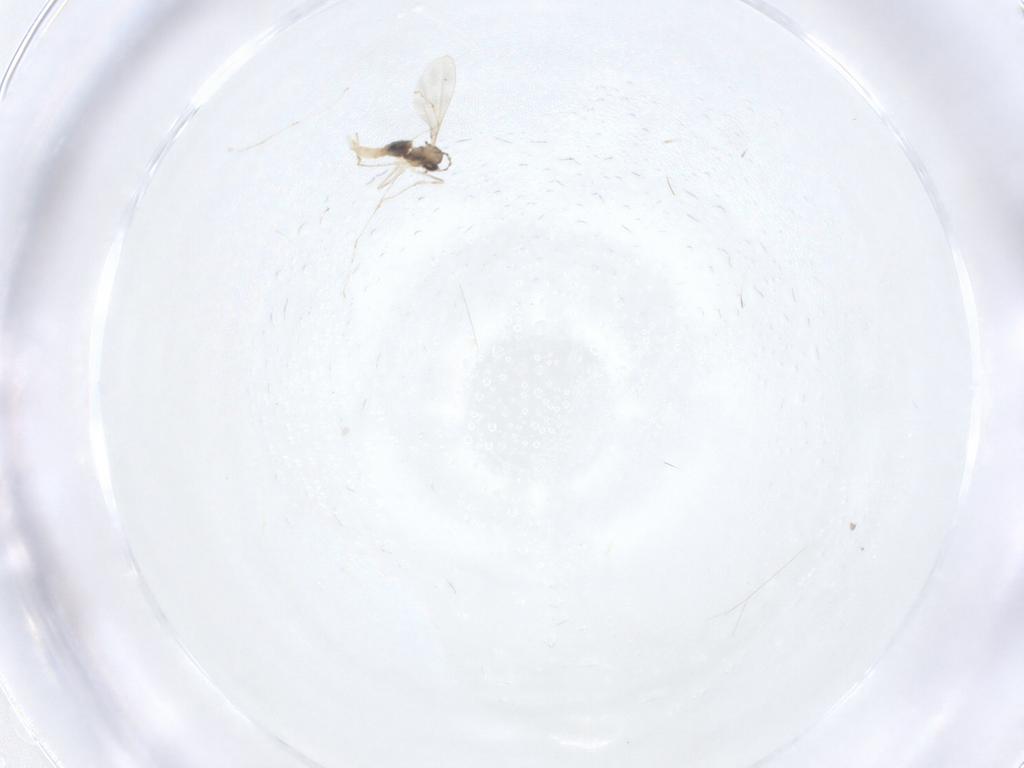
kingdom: Animalia
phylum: Arthropoda
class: Insecta
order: Diptera
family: Cecidomyiidae
